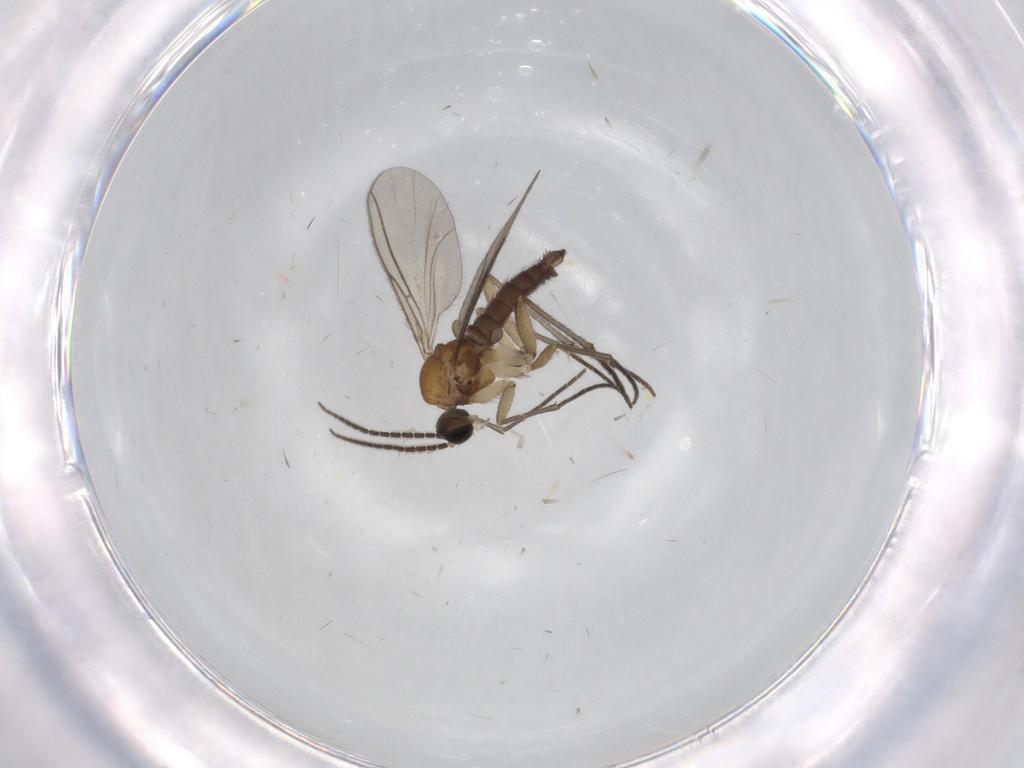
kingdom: Animalia
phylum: Arthropoda
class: Insecta
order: Diptera
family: Sciaridae
